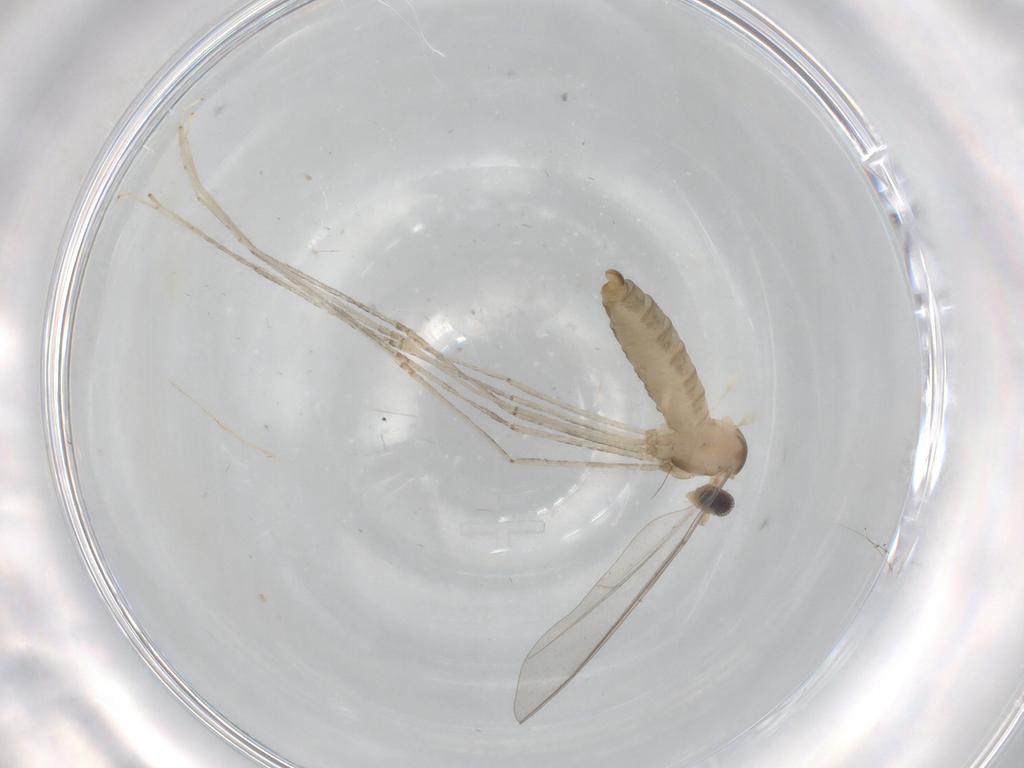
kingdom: Animalia
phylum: Arthropoda
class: Insecta
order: Diptera
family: Cecidomyiidae
